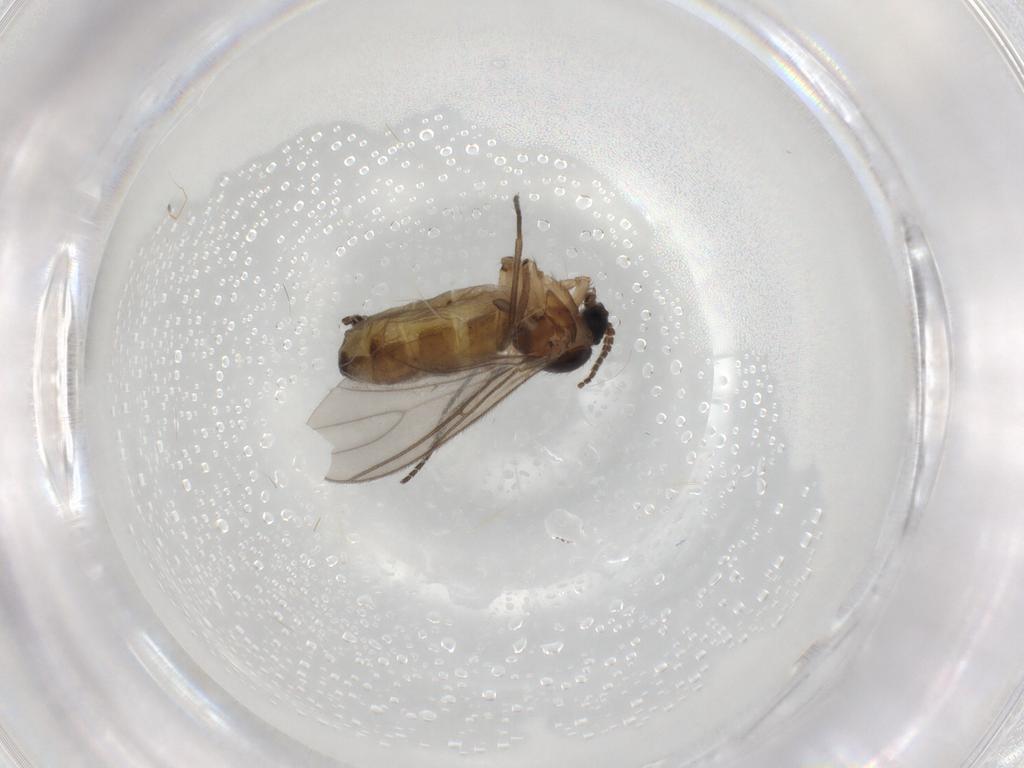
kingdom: Animalia
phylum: Arthropoda
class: Insecta
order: Diptera
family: Sciaridae
